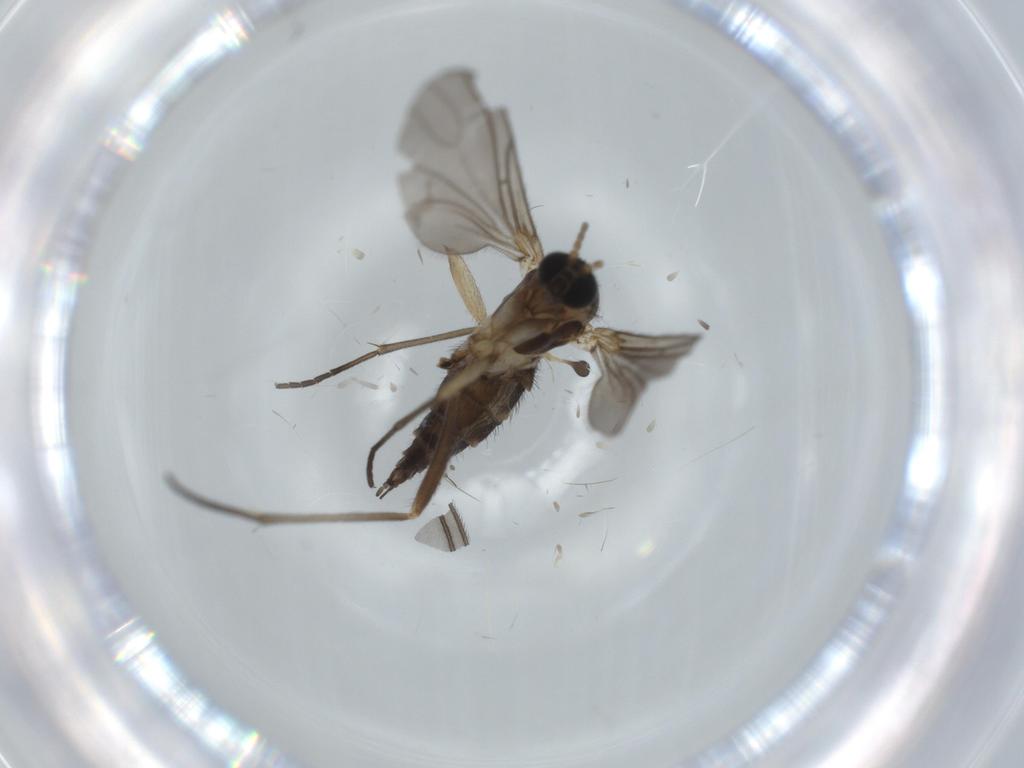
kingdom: Animalia
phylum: Arthropoda
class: Insecta
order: Diptera
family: Sciaridae
